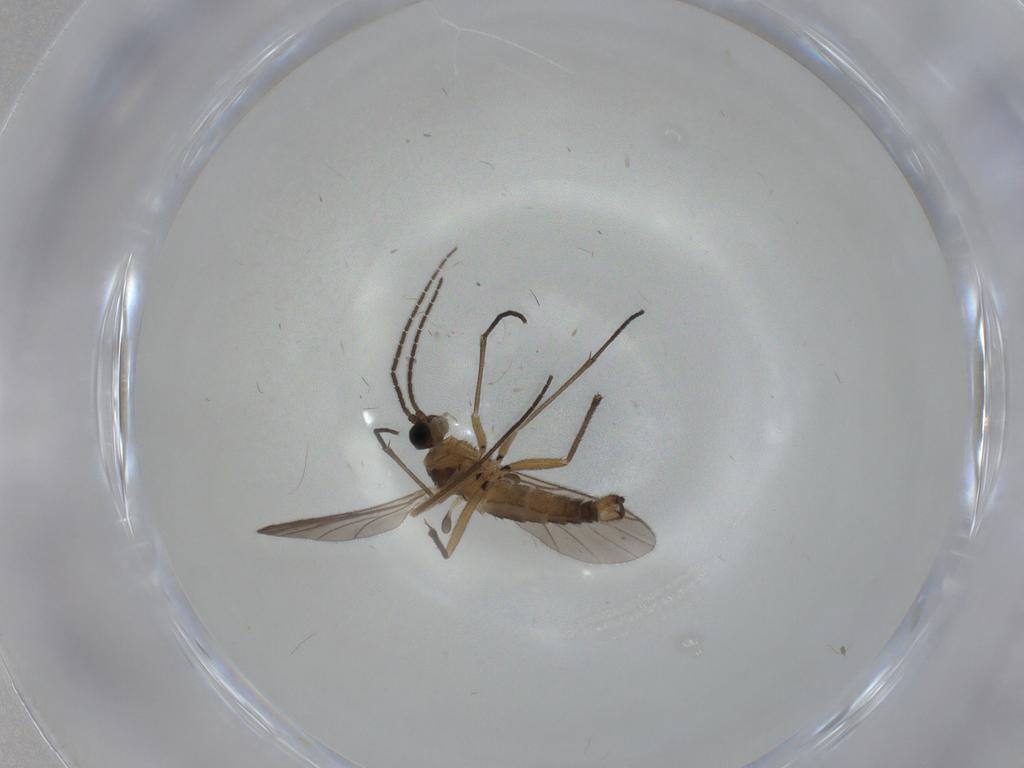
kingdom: Animalia
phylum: Arthropoda
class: Insecta
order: Diptera
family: Sciaridae
